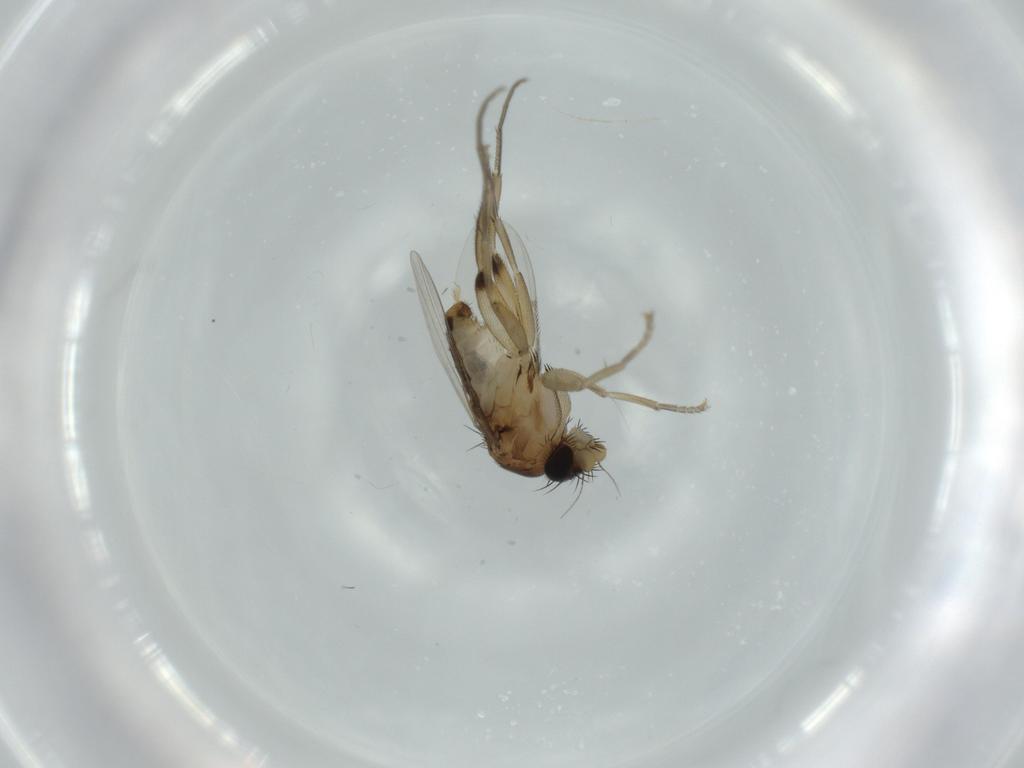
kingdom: Animalia
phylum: Arthropoda
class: Insecta
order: Diptera
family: Phoridae
